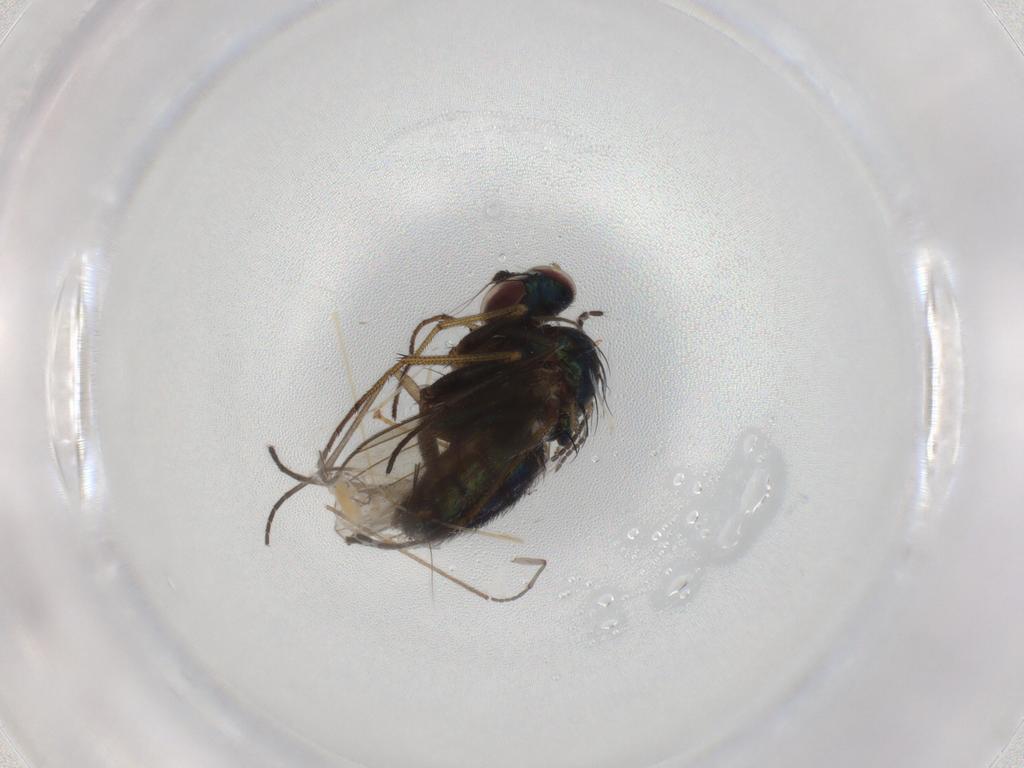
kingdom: Animalia
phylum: Arthropoda
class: Insecta
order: Diptera
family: Dolichopodidae
